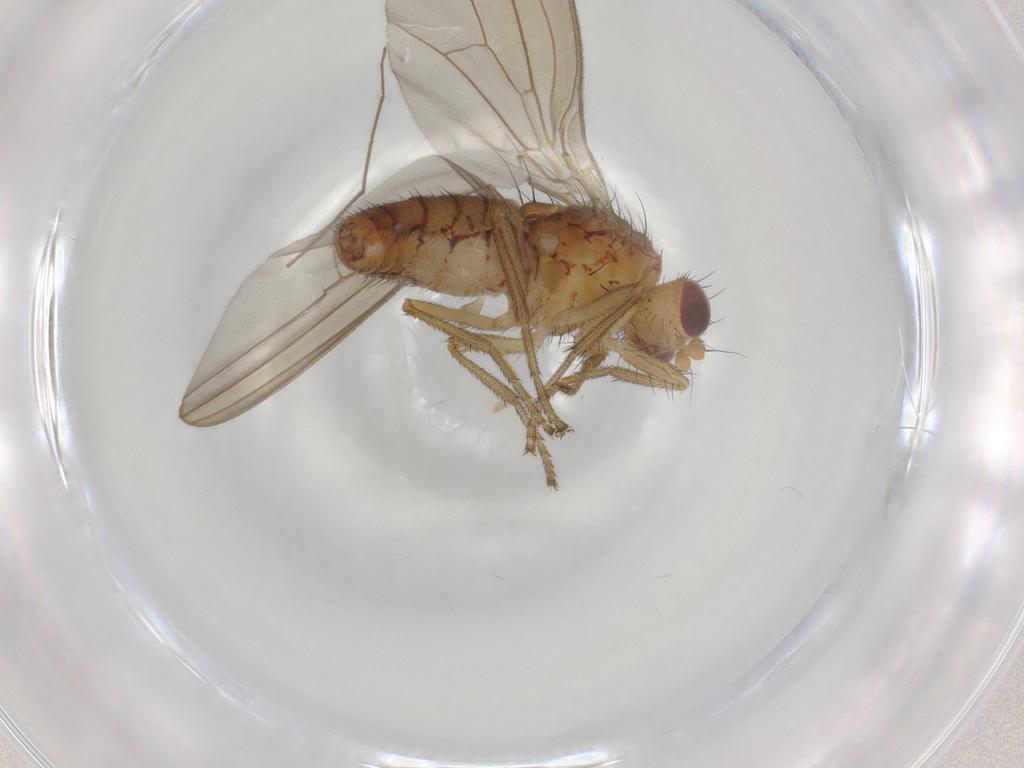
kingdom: Animalia
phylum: Arthropoda
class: Insecta
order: Diptera
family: Natalimyzidae
